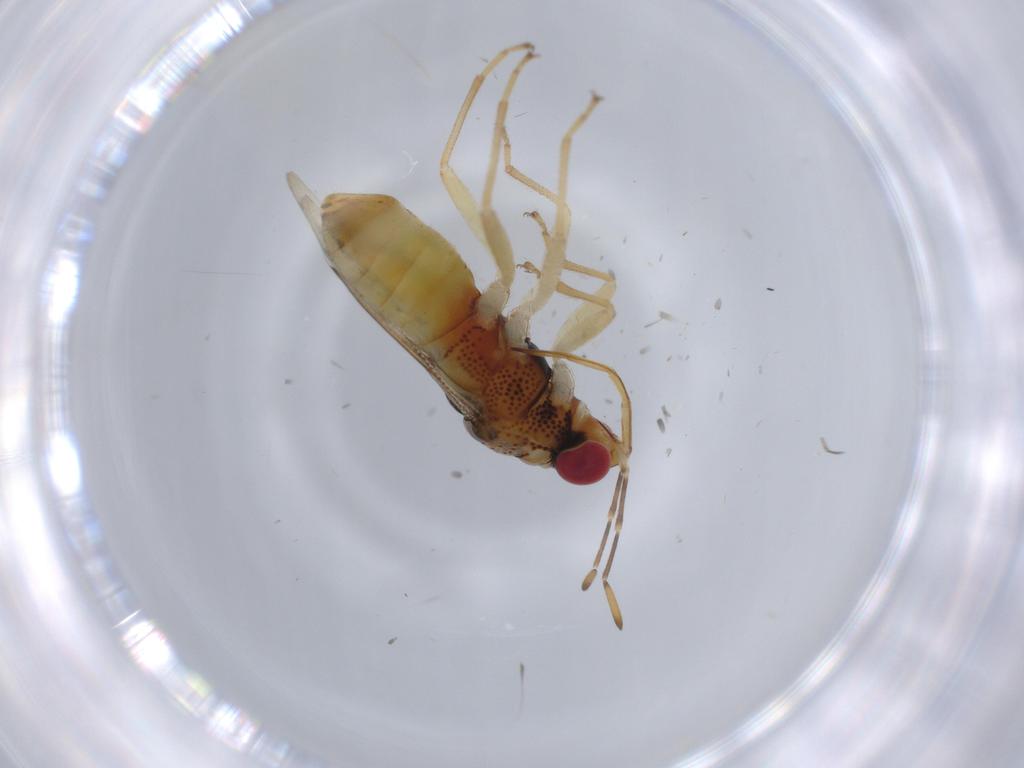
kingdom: Animalia
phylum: Arthropoda
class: Insecta
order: Hemiptera
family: Geocoridae
